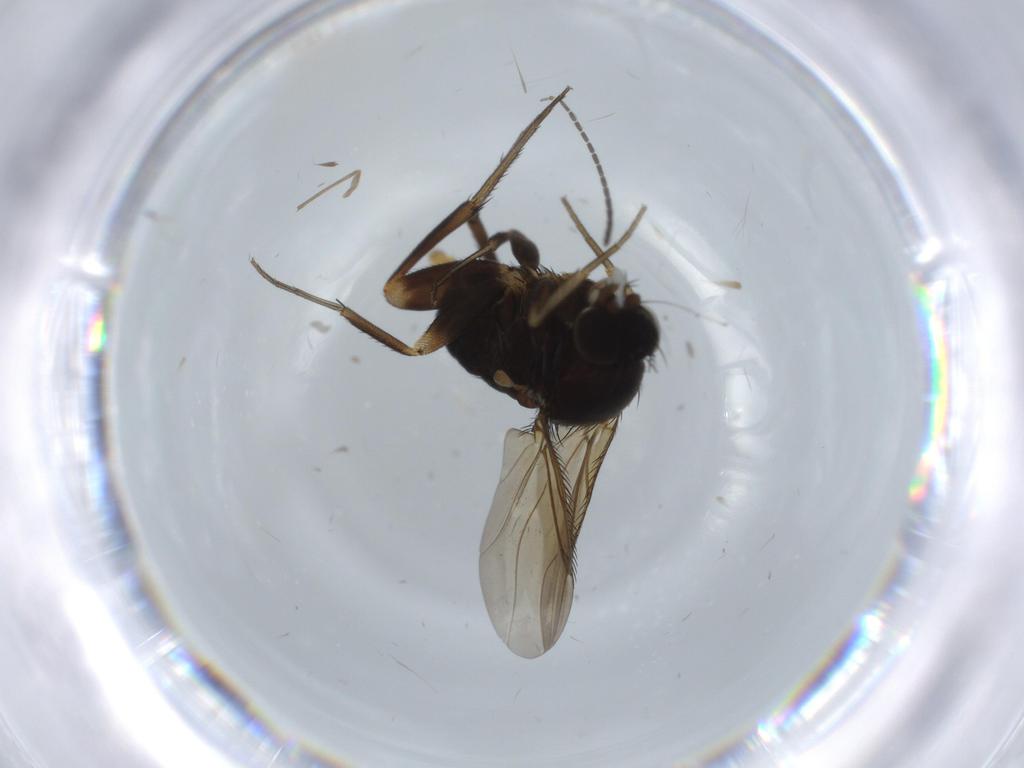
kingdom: Animalia
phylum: Arthropoda
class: Insecta
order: Diptera
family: Sciaridae
